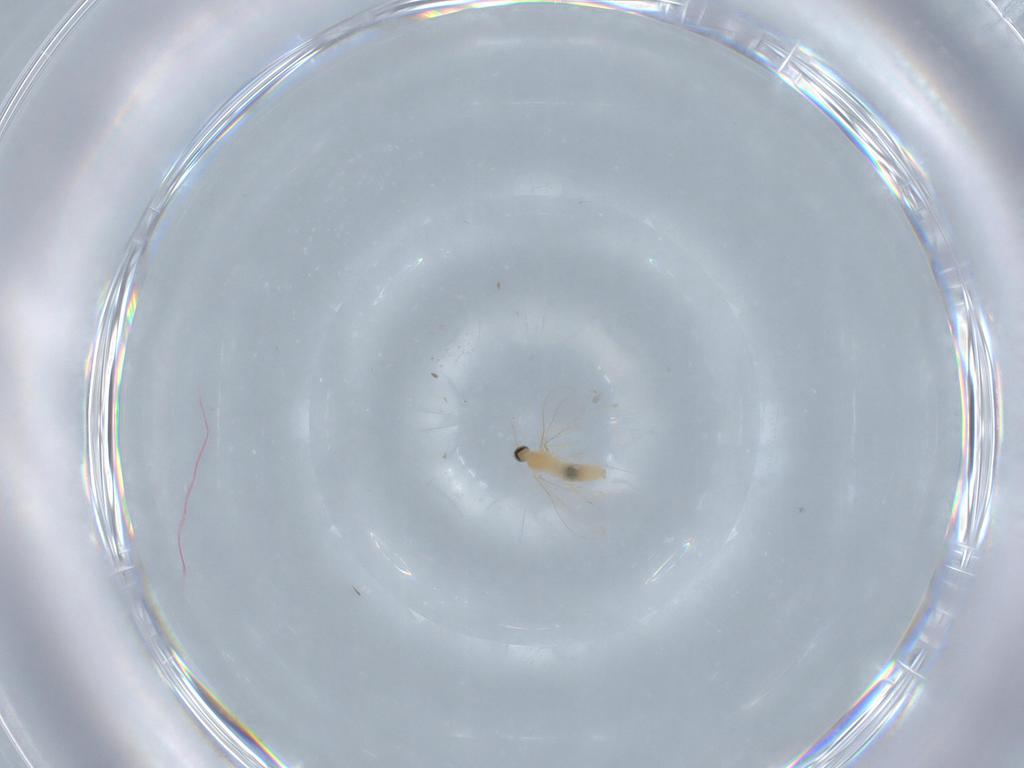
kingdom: Animalia
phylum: Arthropoda
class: Insecta
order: Diptera
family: Cecidomyiidae
